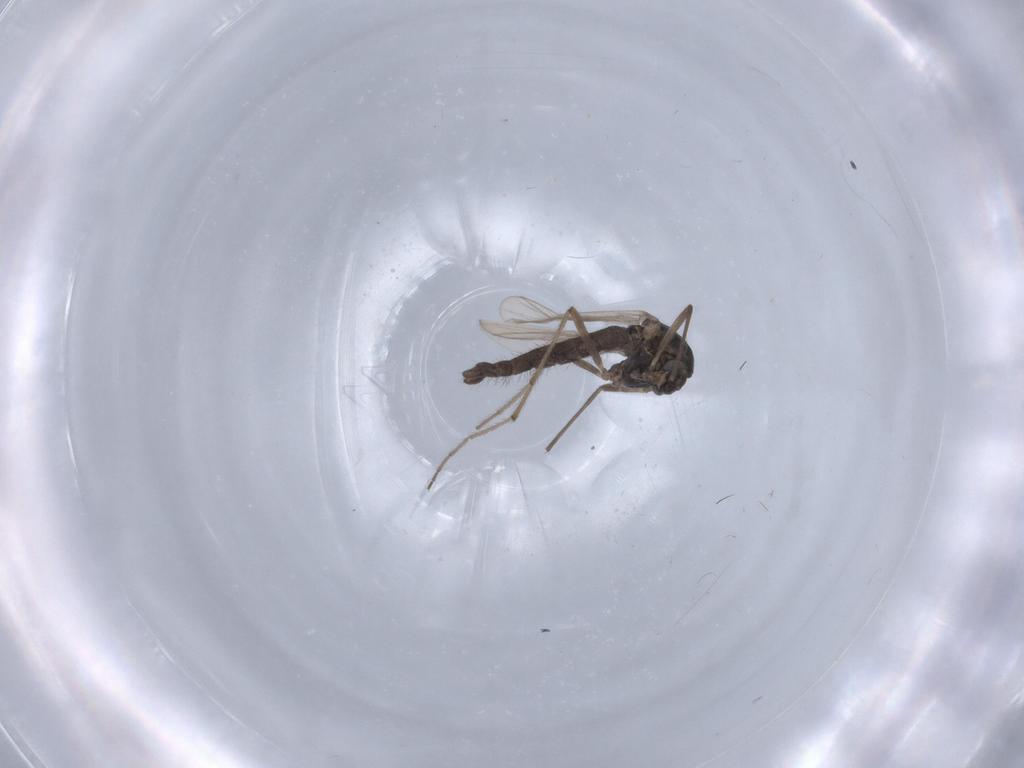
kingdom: Animalia
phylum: Arthropoda
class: Insecta
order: Diptera
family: Chironomidae
